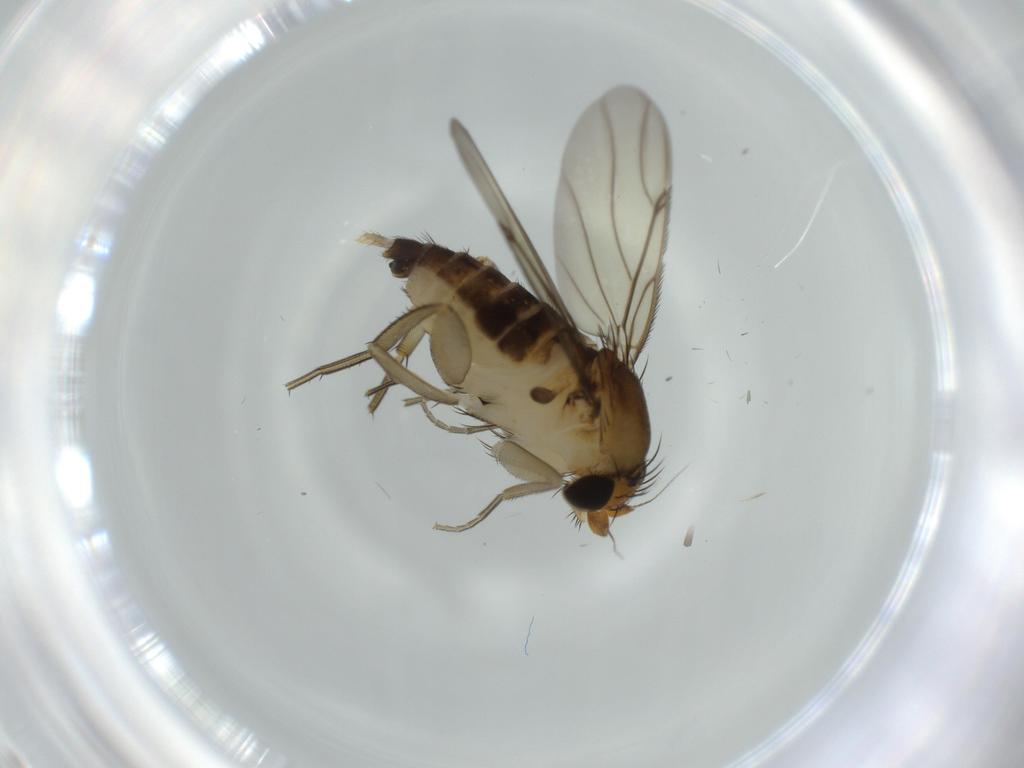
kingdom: Animalia
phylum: Arthropoda
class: Insecta
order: Diptera
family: Phoridae
